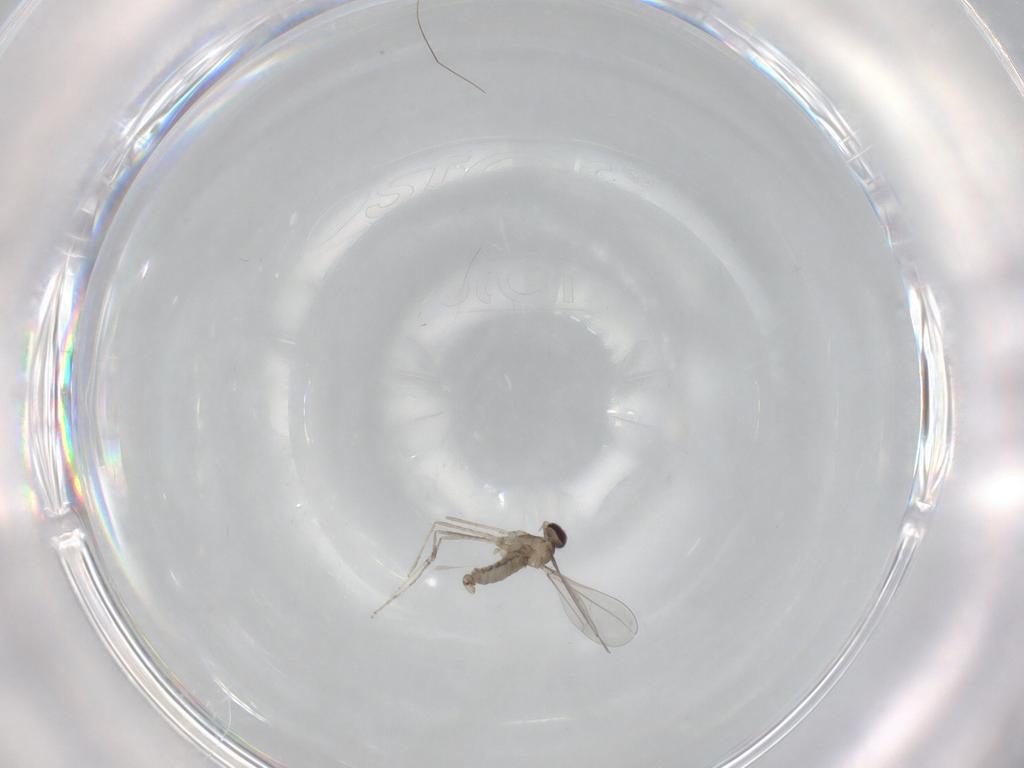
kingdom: Animalia
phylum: Arthropoda
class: Insecta
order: Diptera
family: Cecidomyiidae
